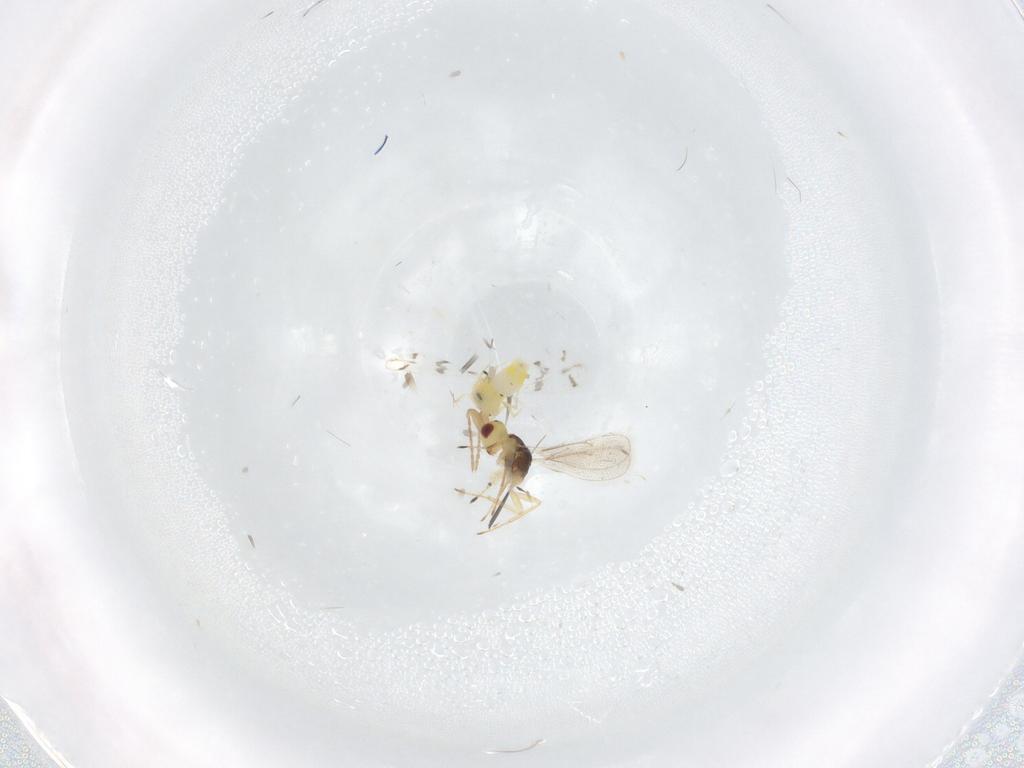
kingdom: Animalia
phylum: Arthropoda
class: Insecta
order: Hymenoptera
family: Eulophidae
